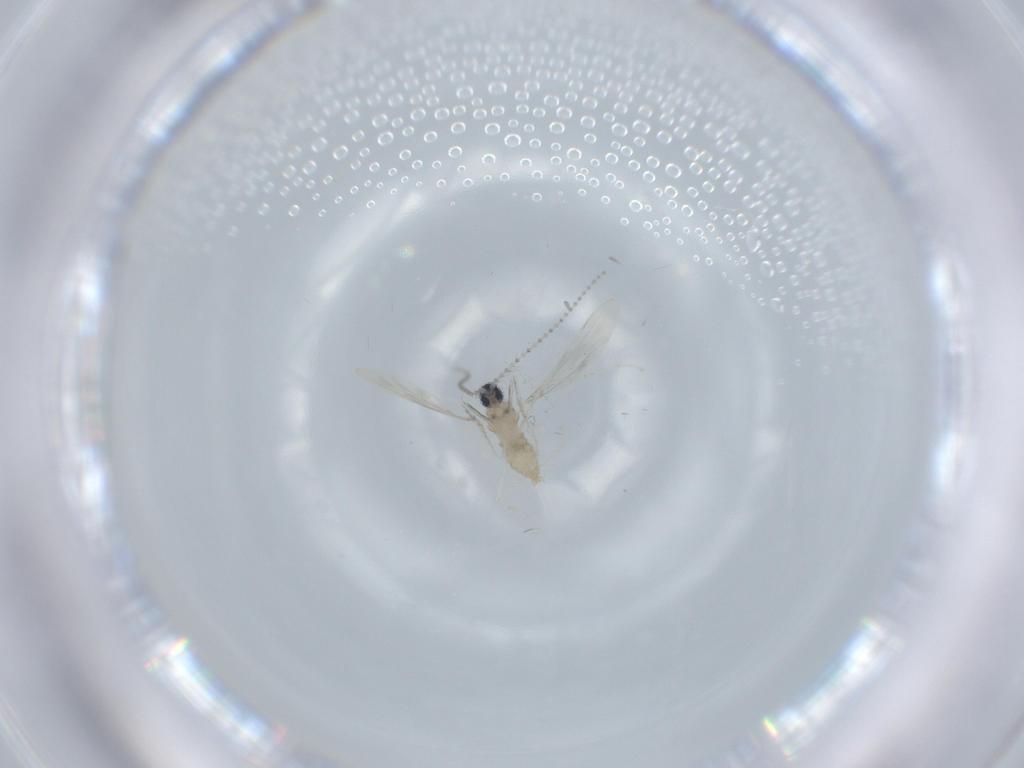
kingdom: Animalia
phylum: Arthropoda
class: Insecta
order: Diptera
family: Cecidomyiidae
